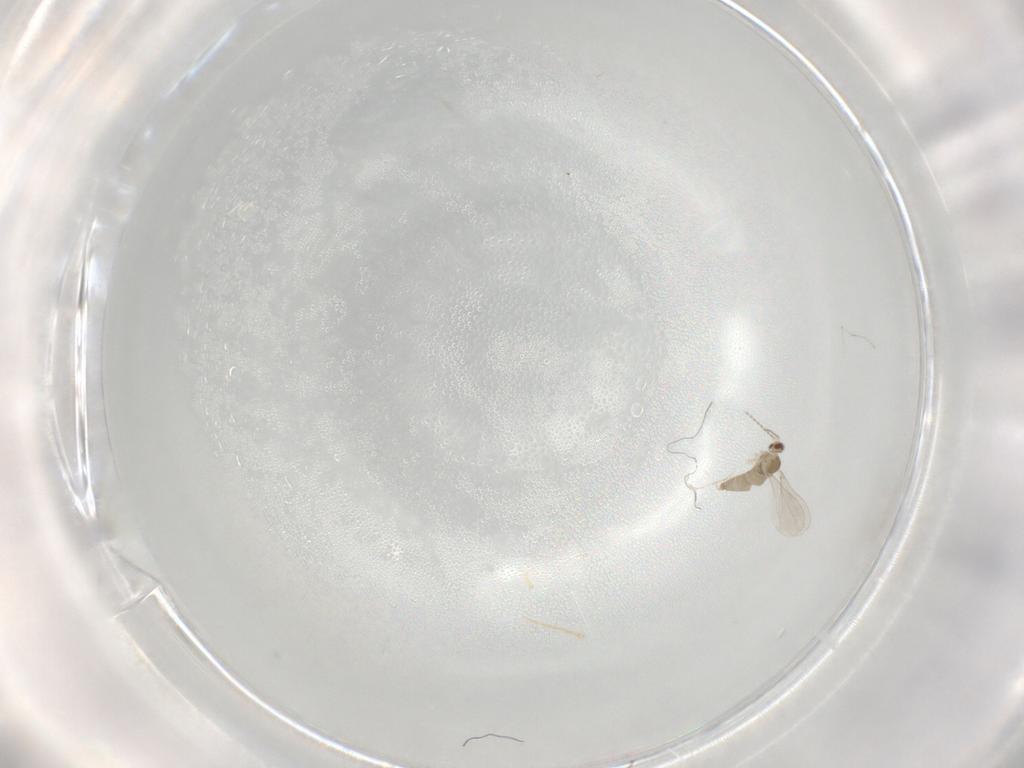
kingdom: Animalia
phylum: Arthropoda
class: Insecta
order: Diptera
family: Cecidomyiidae
